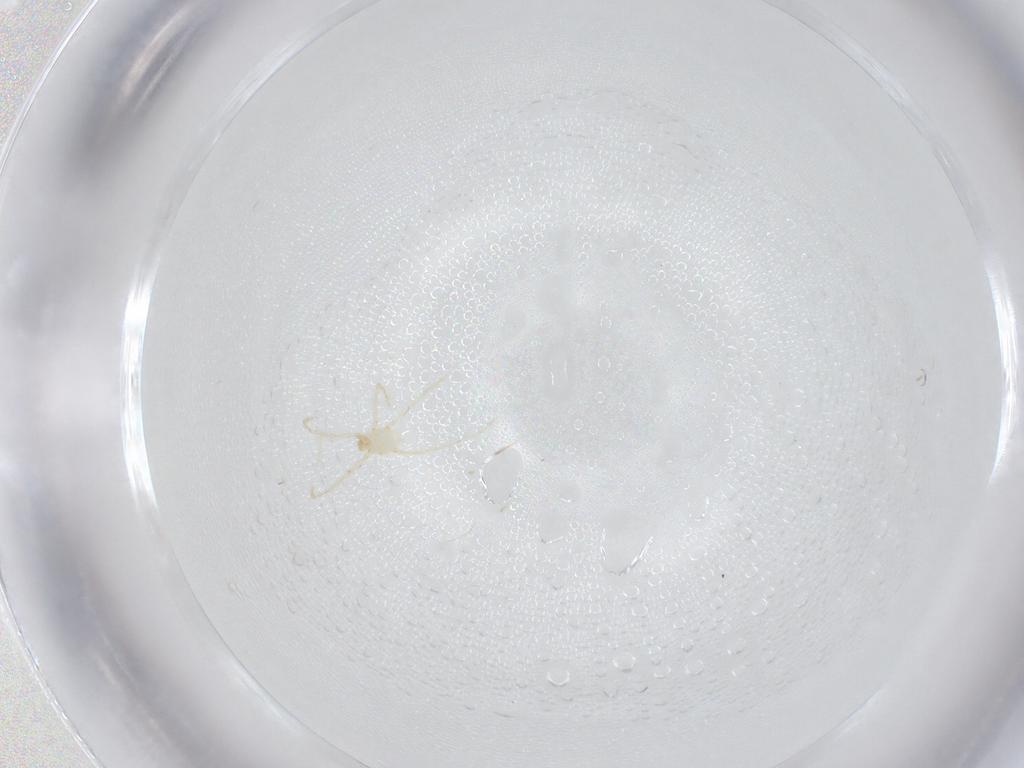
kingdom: Animalia
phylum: Arthropoda
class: Arachnida
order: Trombidiformes
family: Erythraeidae
